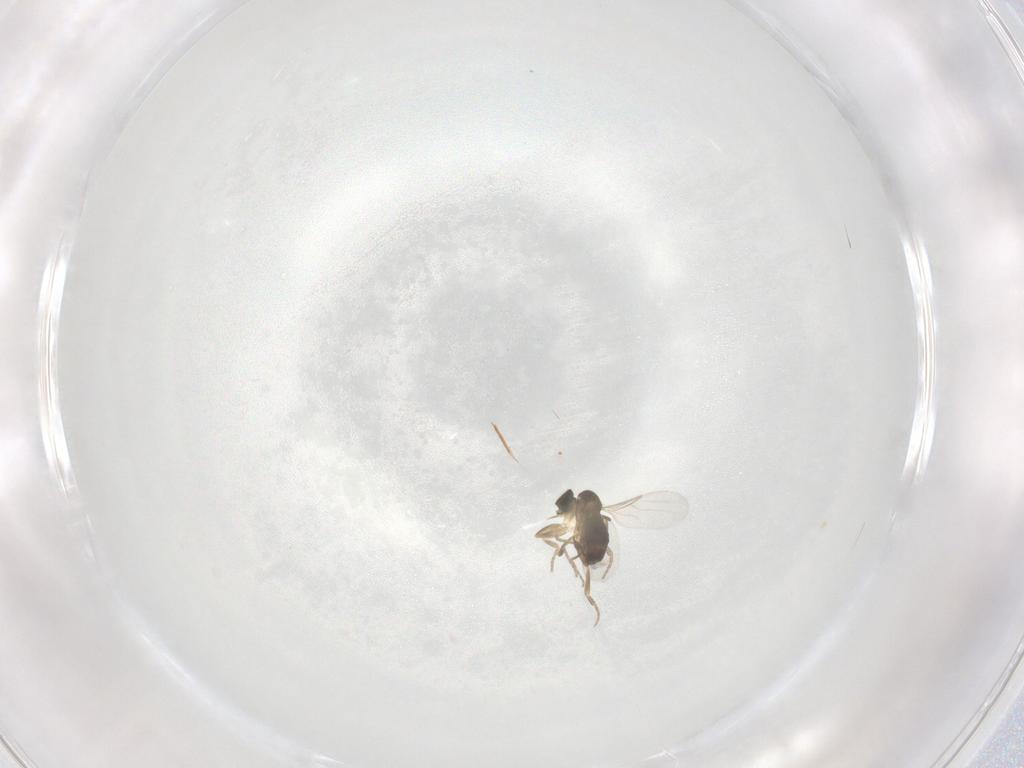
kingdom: Animalia
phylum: Arthropoda
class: Insecta
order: Diptera
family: Phoridae
